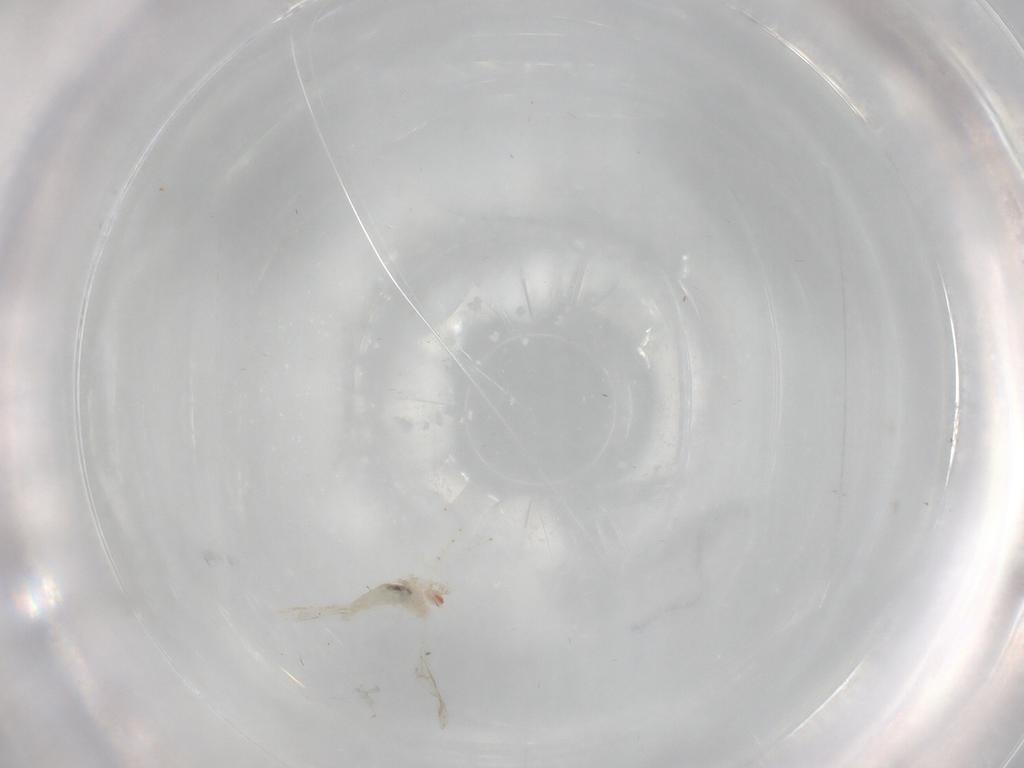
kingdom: Animalia
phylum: Arthropoda
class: Insecta
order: Diptera
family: Cecidomyiidae
